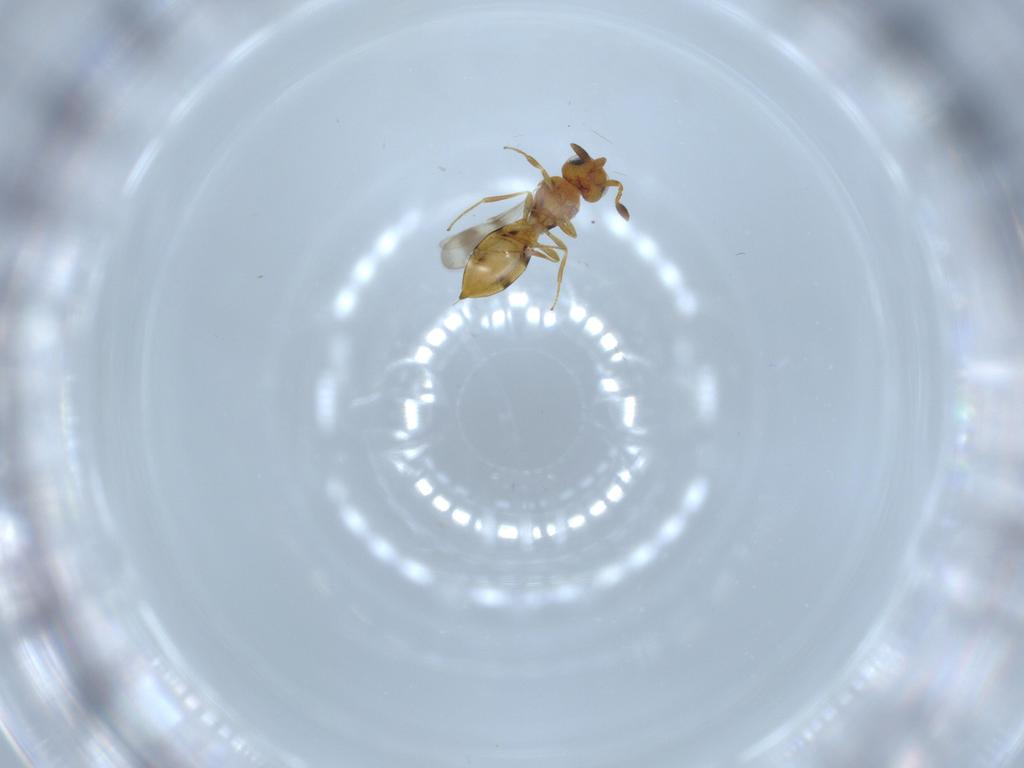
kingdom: Animalia
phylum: Arthropoda
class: Insecta
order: Hymenoptera
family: Scelionidae
